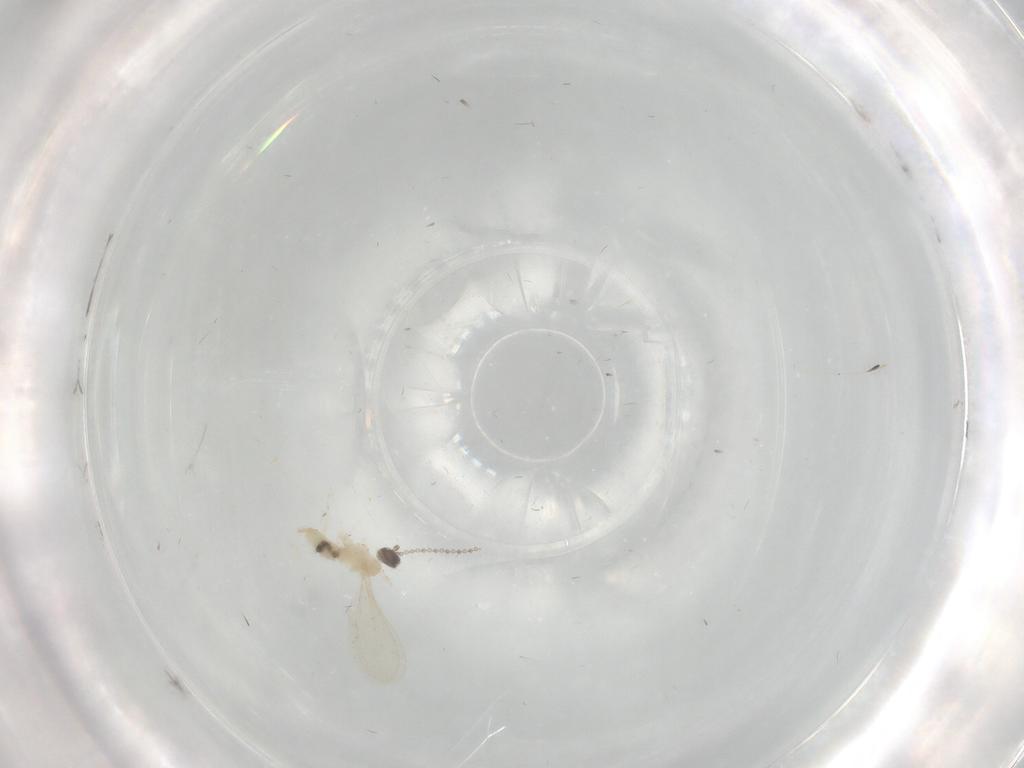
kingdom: Animalia
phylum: Arthropoda
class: Insecta
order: Diptera
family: Cecidomyiidae
